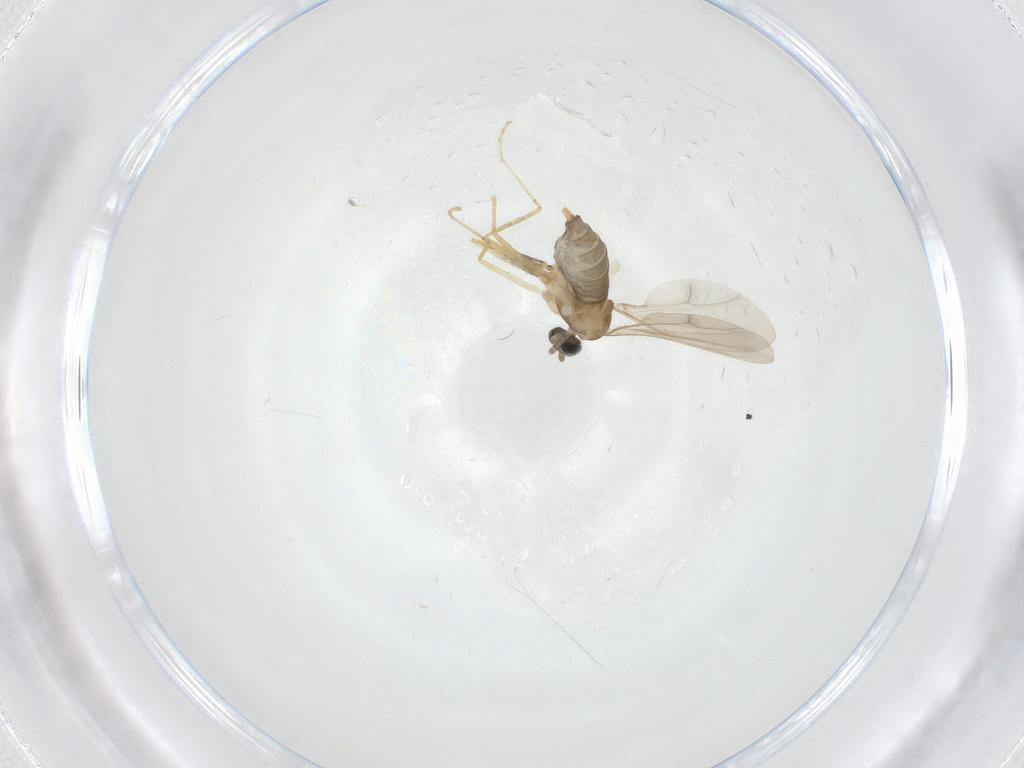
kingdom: Animalia
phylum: Arthropoda
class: Insecta
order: Diptera
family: Cecidomyiidae
